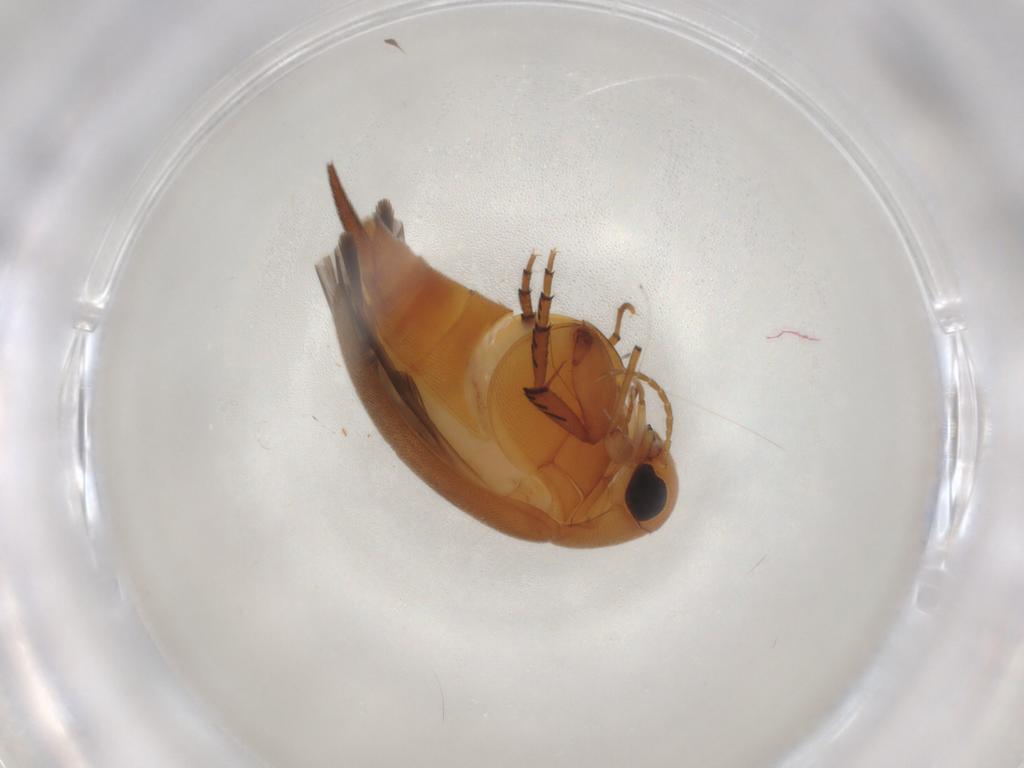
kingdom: Animalia
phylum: Arthropoda
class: Insecta
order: Coleoptera
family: Mordellidae
